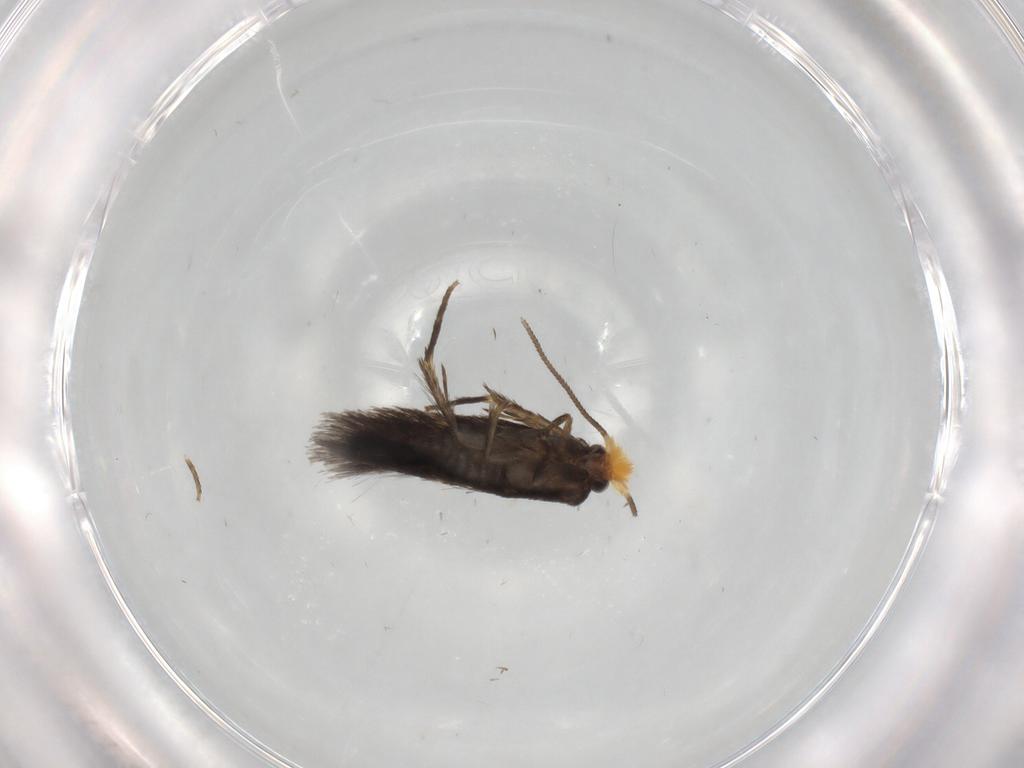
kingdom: Animalia
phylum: Arthropoda
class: Insecta
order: Lepidoptera
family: Nepticulidae
